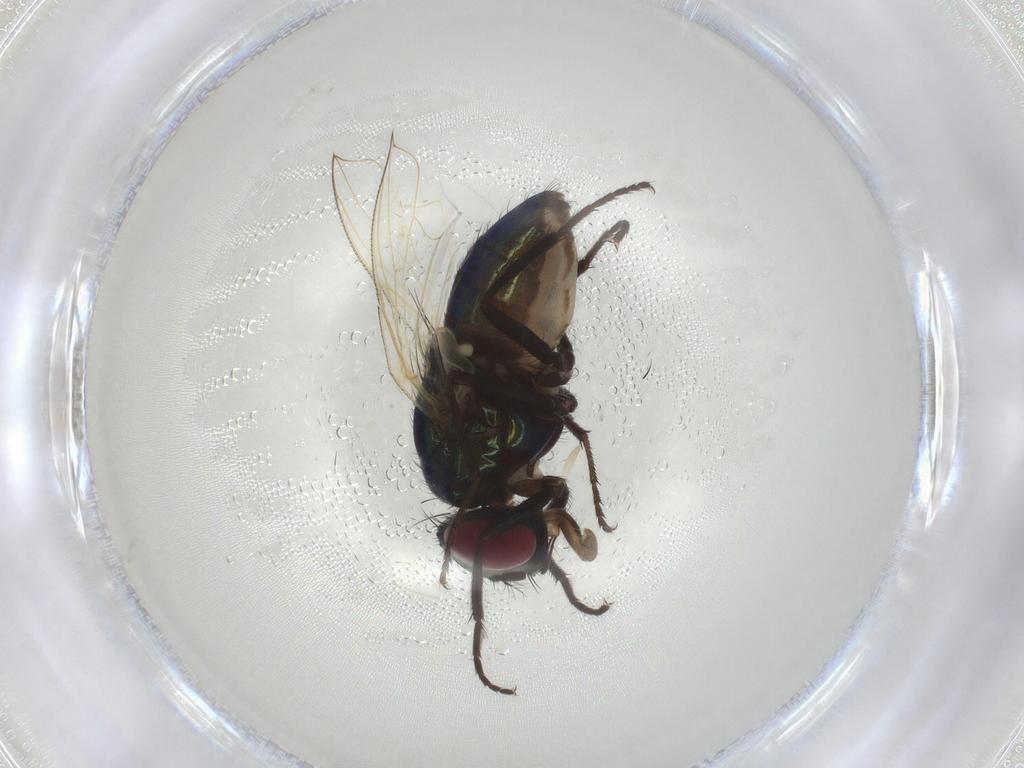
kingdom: Animalia
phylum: Arthropoda
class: Insecta
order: Diptera
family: Muscidae
